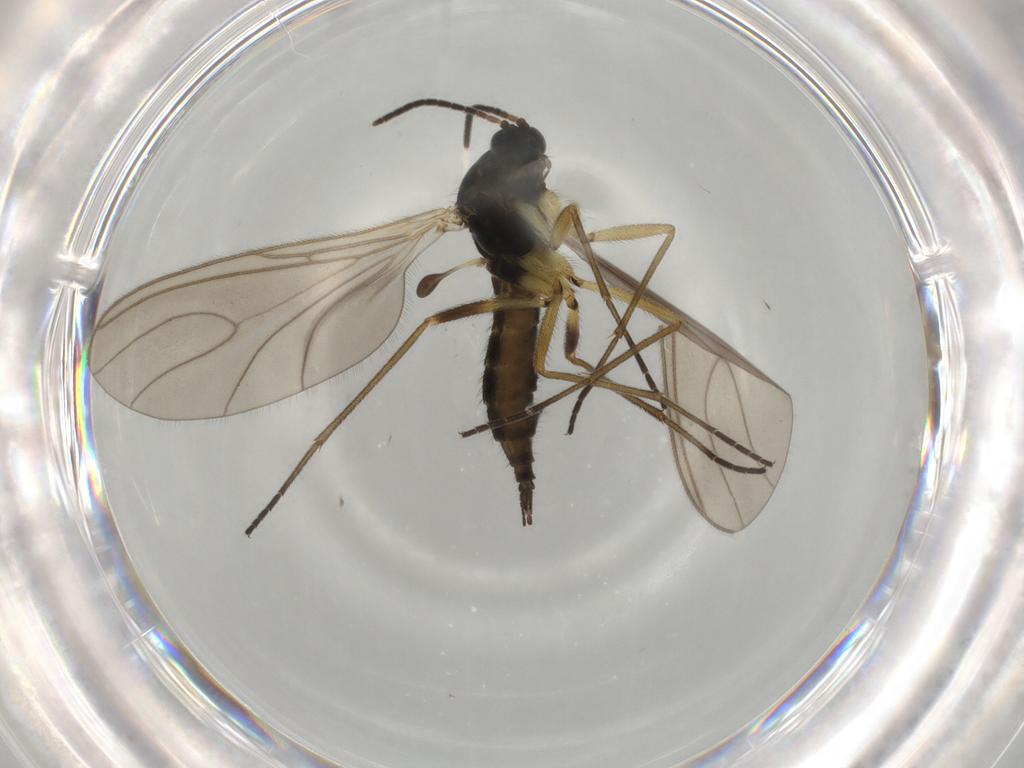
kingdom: Animalia
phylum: Arthropoda
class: Insecta
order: Diptera
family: Sciaridae
